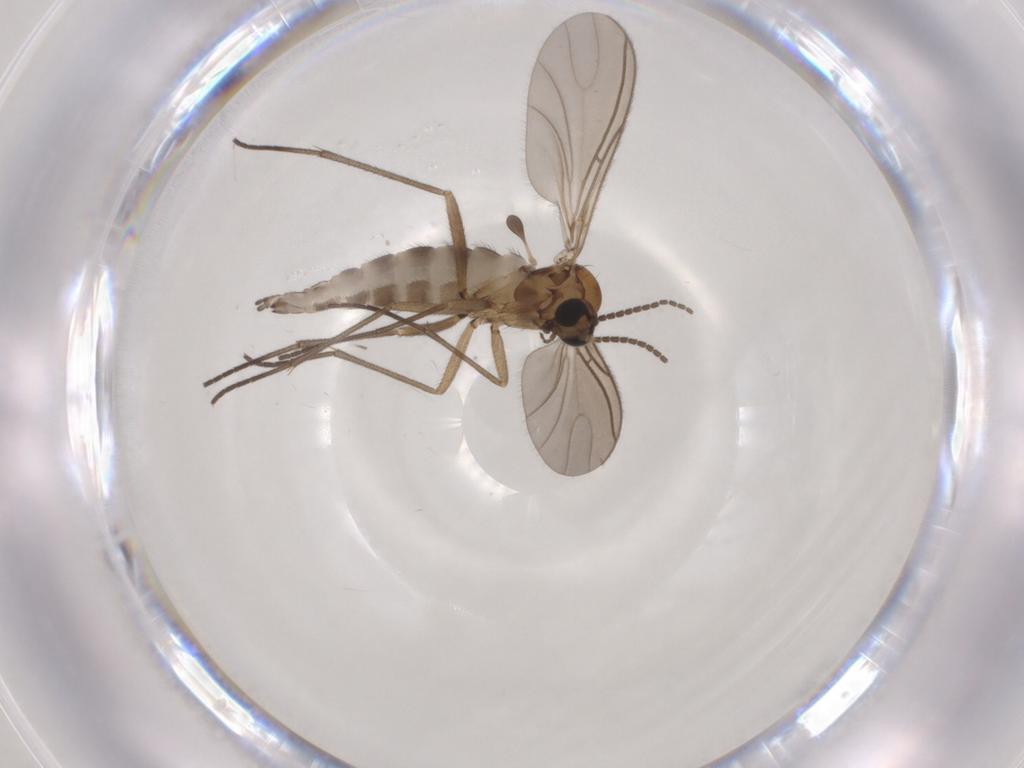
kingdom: Animalia
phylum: Arthropoda
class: Insecta
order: Diptera
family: Sciaridae
